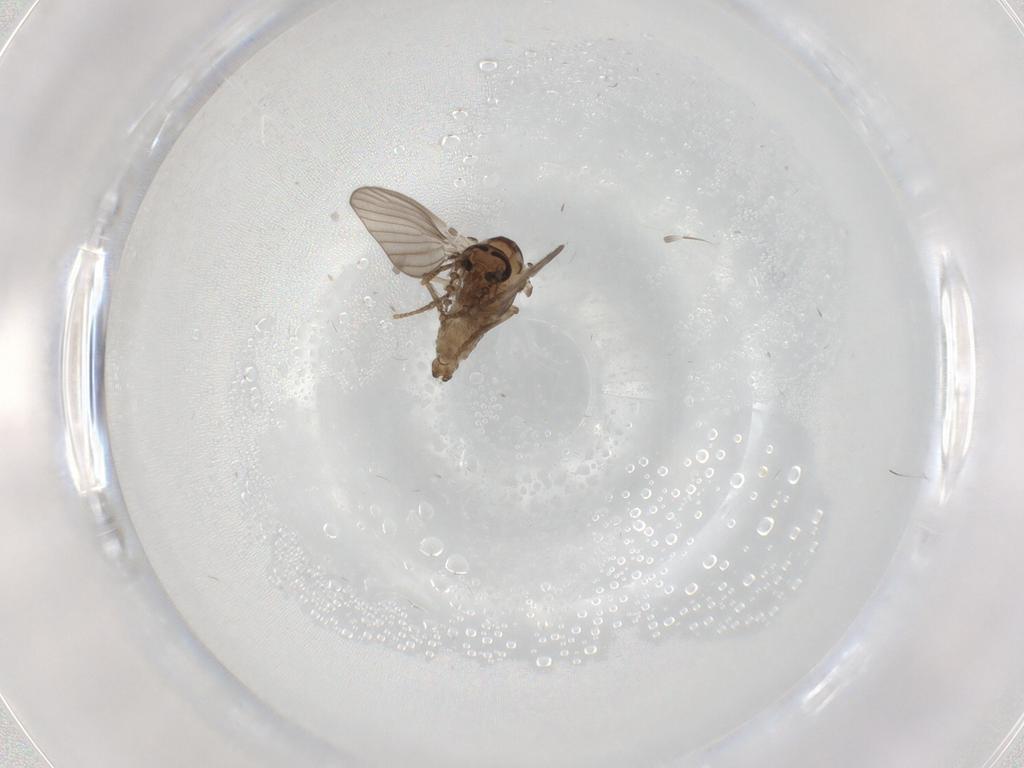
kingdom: Animalia
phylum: Arthropoda
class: Insecta
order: Diptera
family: Psychodidae
